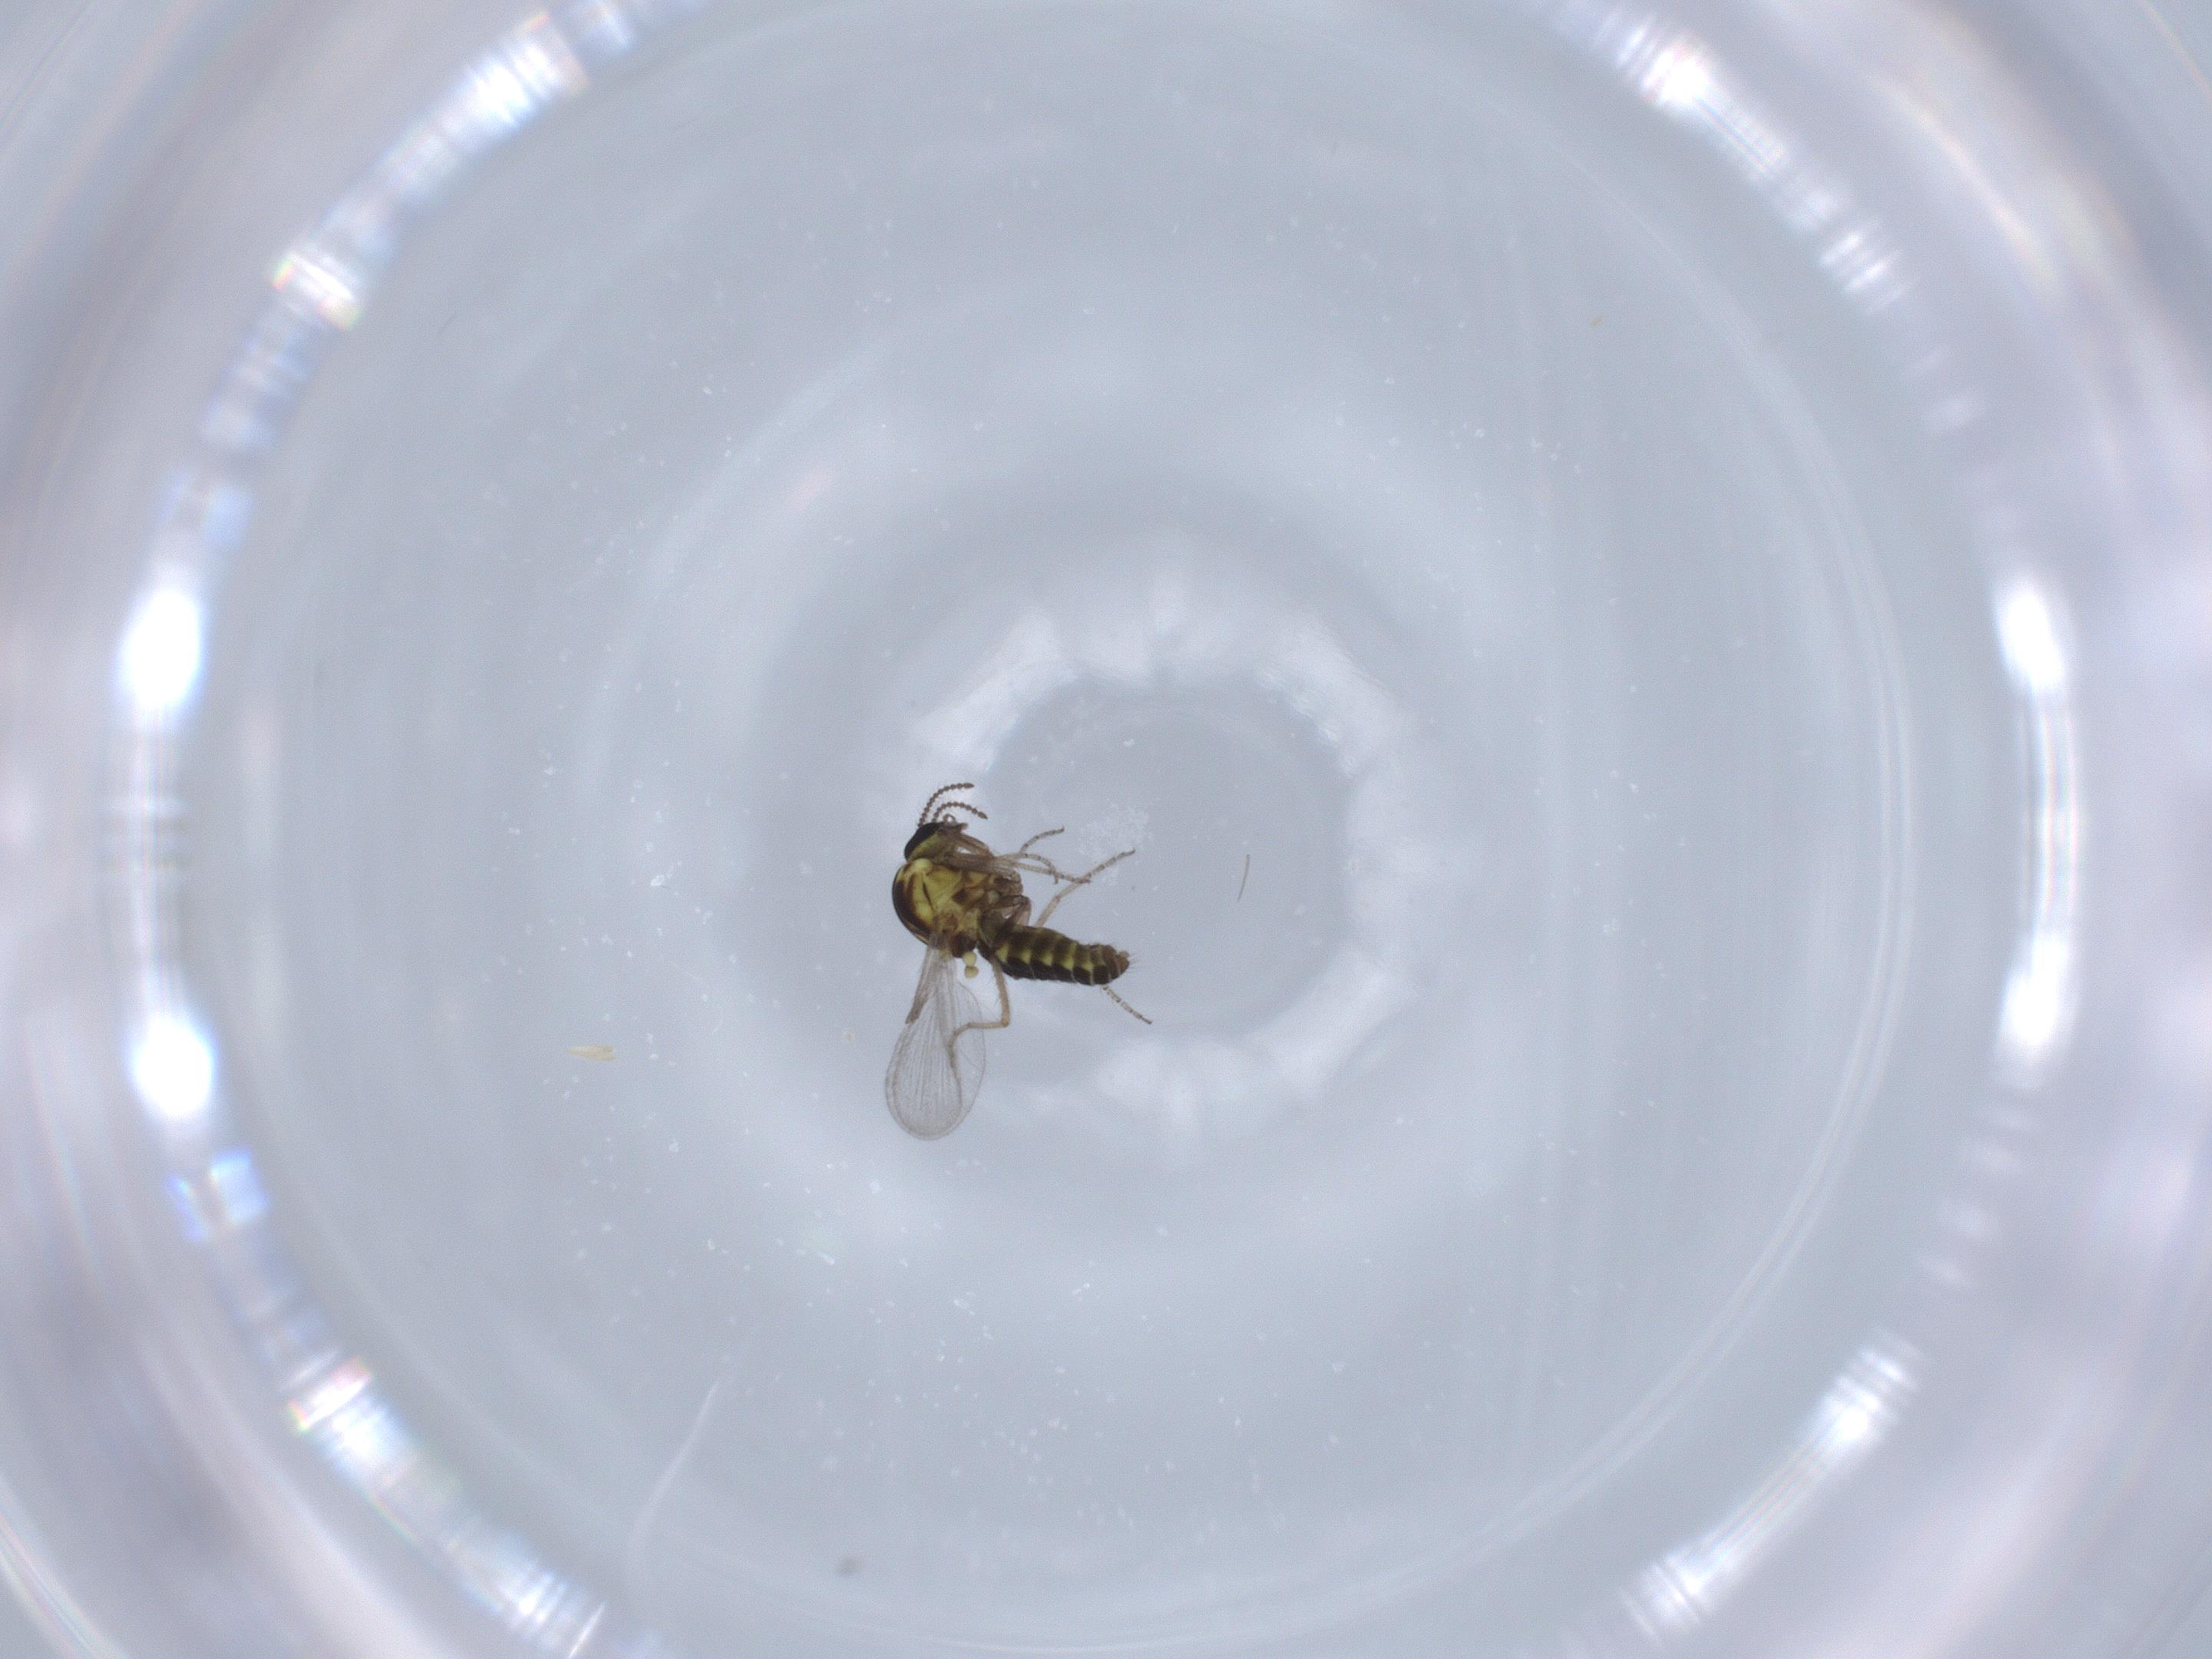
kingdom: Animalia
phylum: Arthropoda
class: Insecta
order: Diptera
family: Ceratopogonidae
